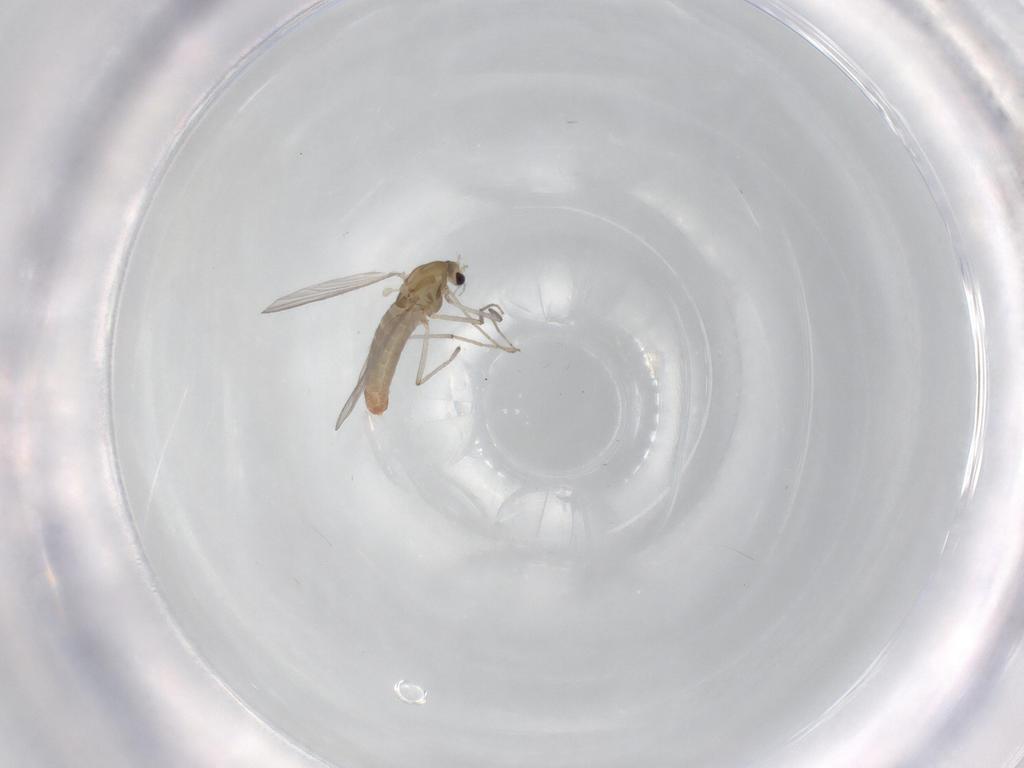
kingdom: Animalia
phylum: Arthropoda
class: Insecta
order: Diptera
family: Chironomidae
